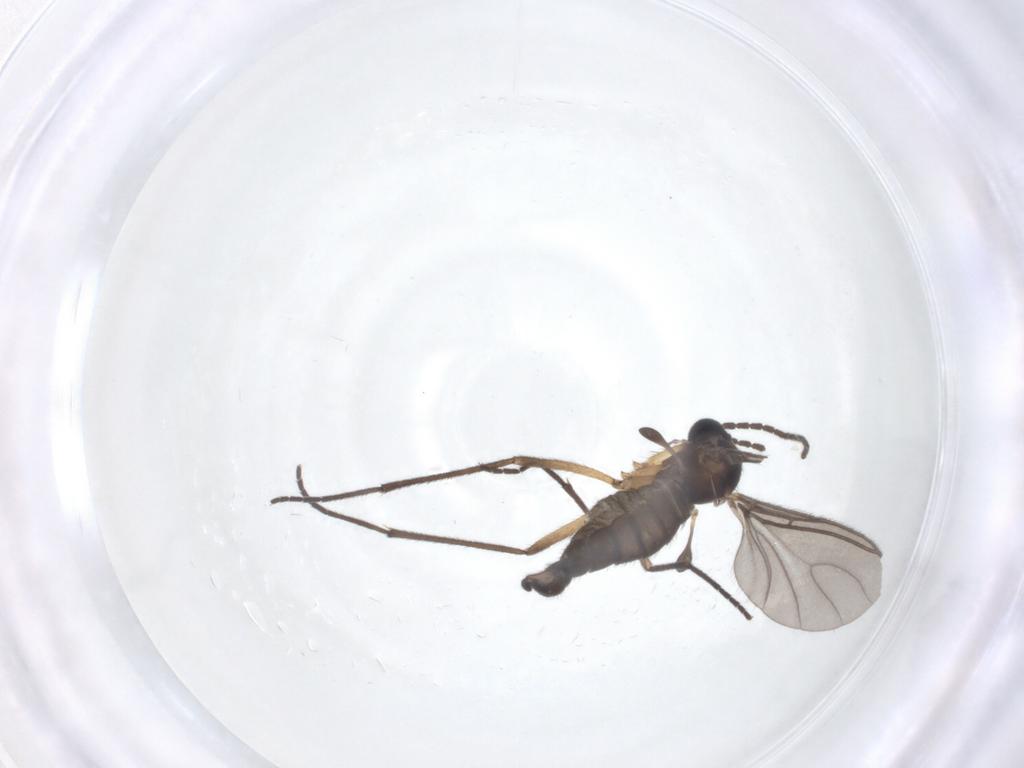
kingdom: Animalia
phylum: Arthropoda
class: Insecta
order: Diptera
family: Sciaridae
